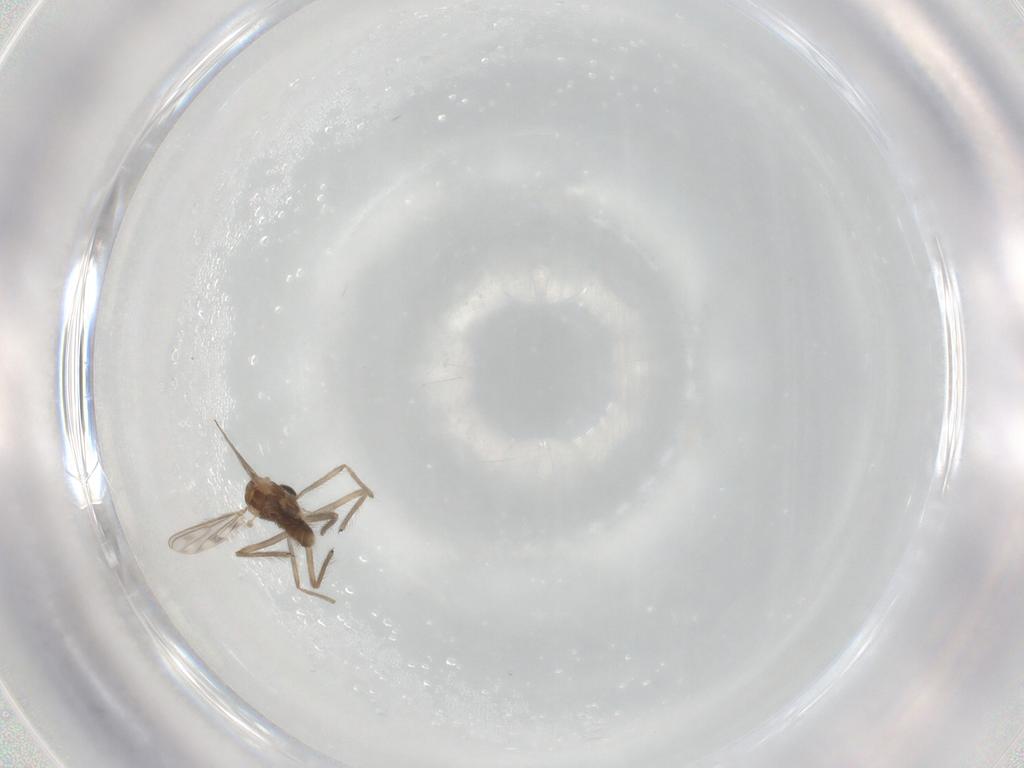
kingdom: Animalia
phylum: Arthropoda
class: Insecta
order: Diptera
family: Chironomidae
